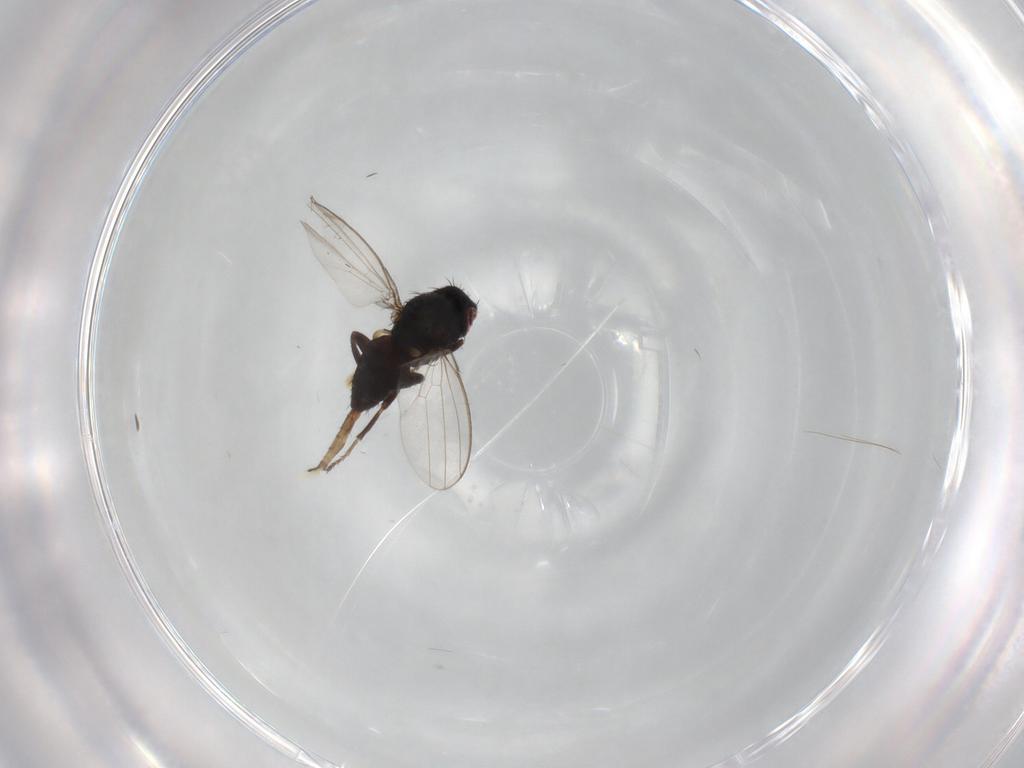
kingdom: Animalia
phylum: Arthropoda
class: Insecta
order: Diptera
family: Milichiidae
